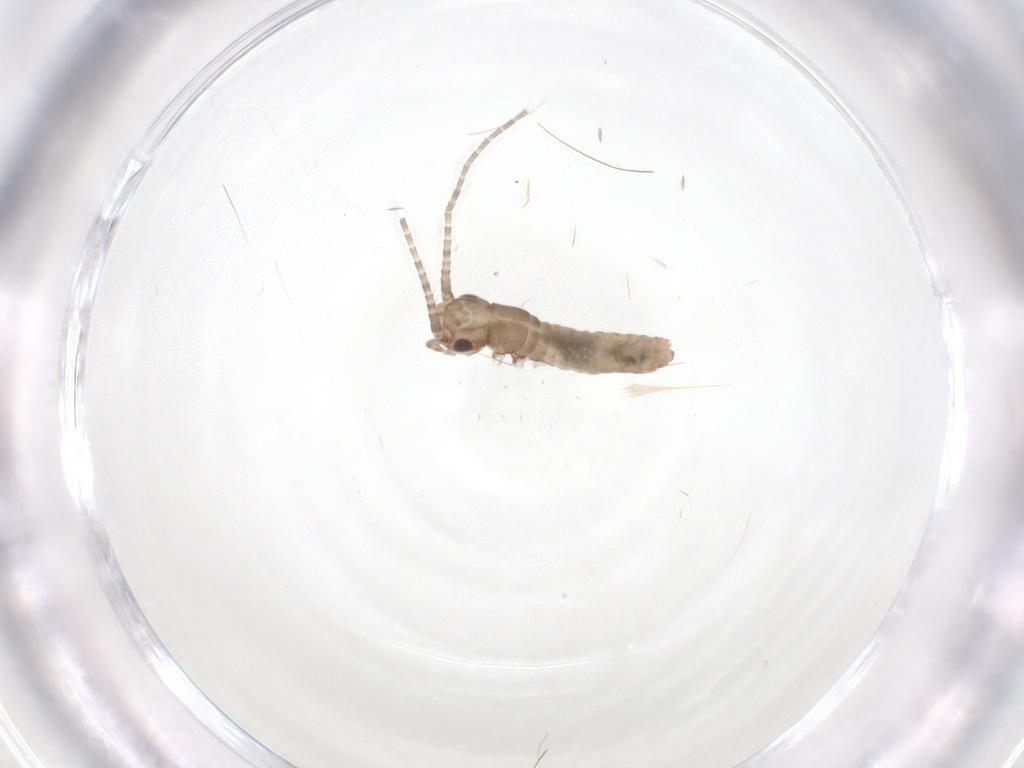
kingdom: Animalia
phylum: Arthropoda
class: Insecta
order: Orthoptera
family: Mogoplistidae
